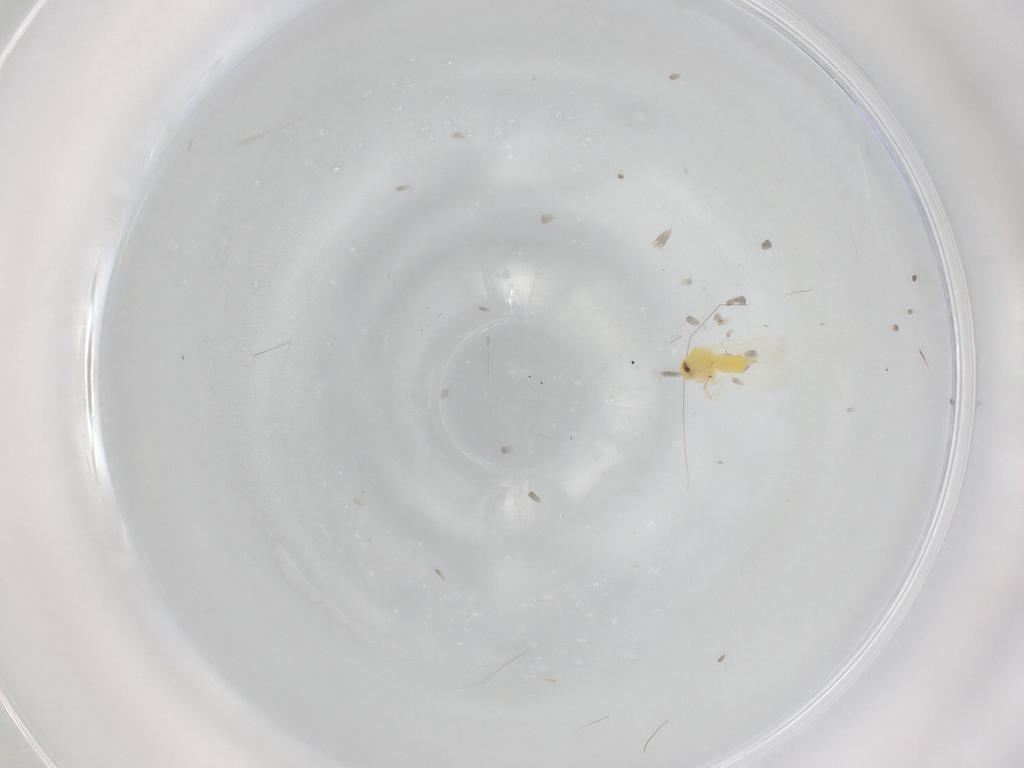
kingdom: Animalia
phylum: Arthropoda
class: Insecta
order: Hemiptera
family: Aleyrodidae
